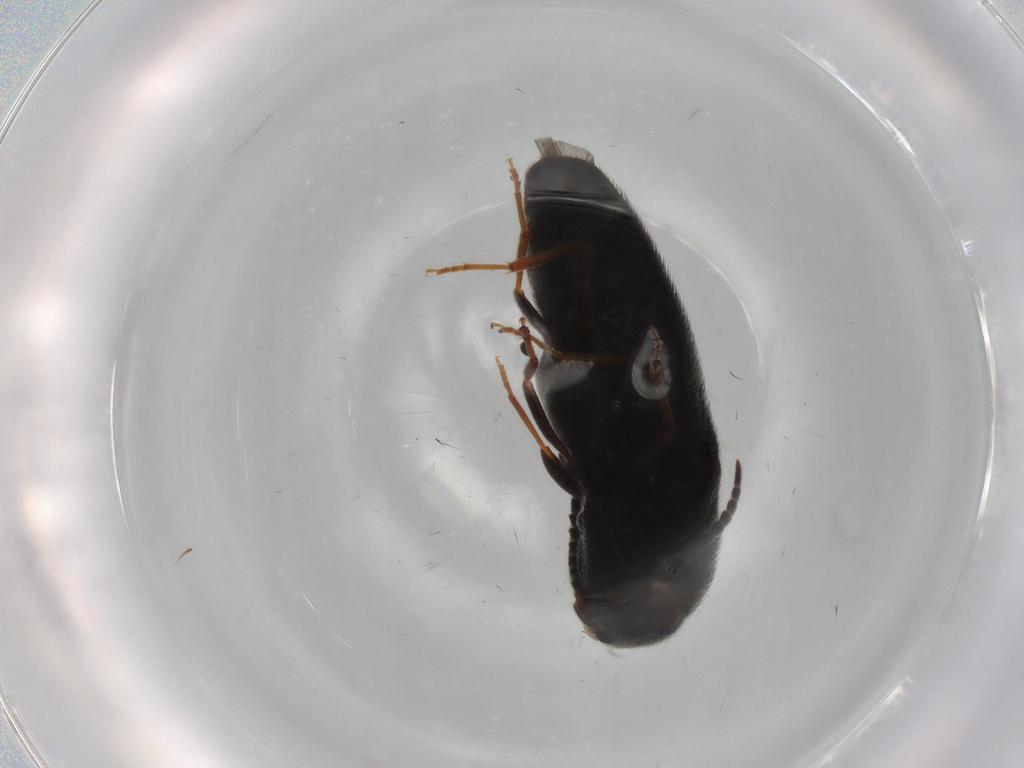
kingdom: Animalia
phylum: Arthropoda
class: Insecta
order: Coleoptera
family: Eucnemidae
